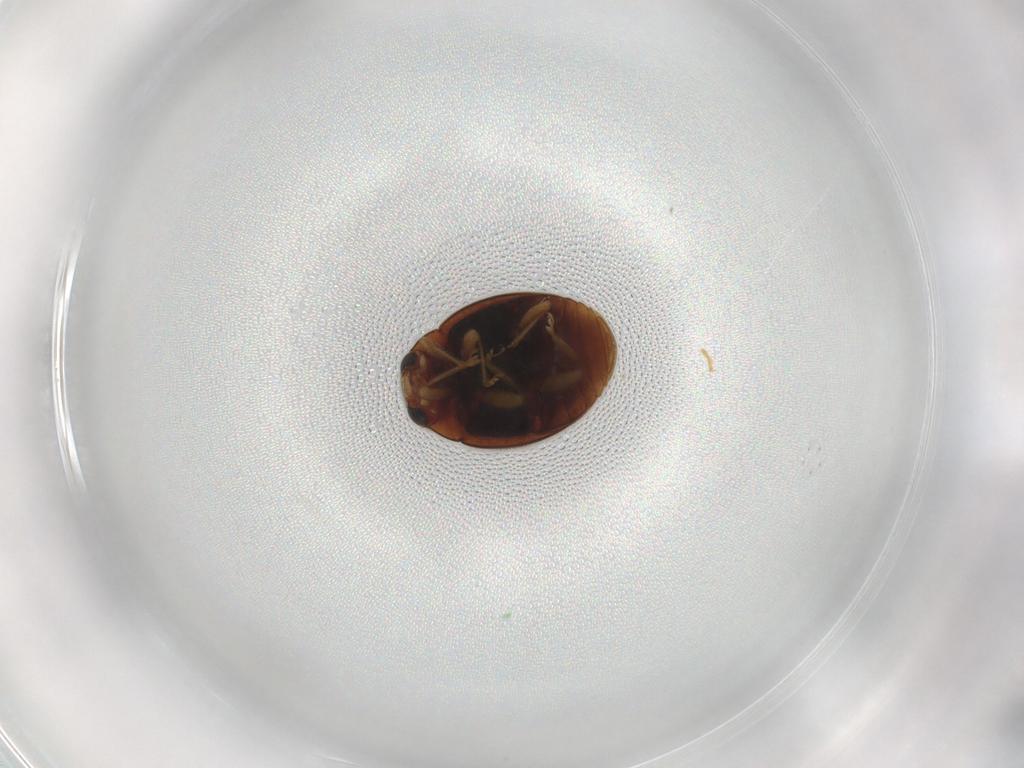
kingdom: Animalia
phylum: Arthropoda
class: Insecta
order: Coleoptera
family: Coccinellidae
